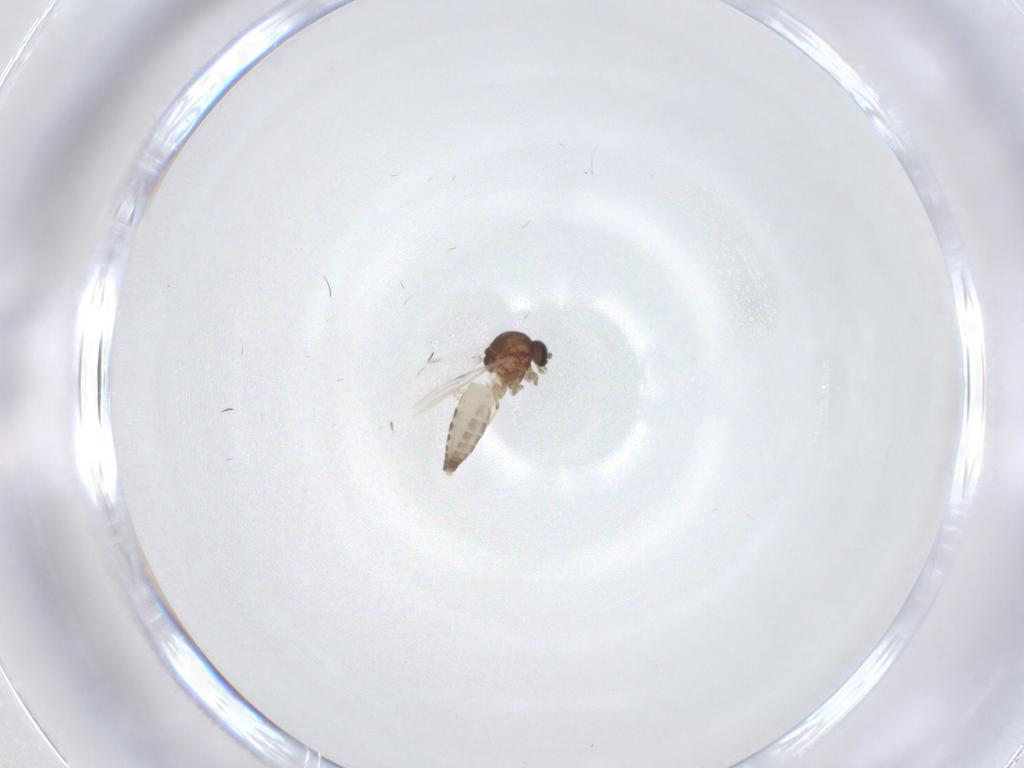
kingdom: Animalia
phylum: Arthropoda
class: Insecta
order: Diptera
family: Ceratopogonidae
